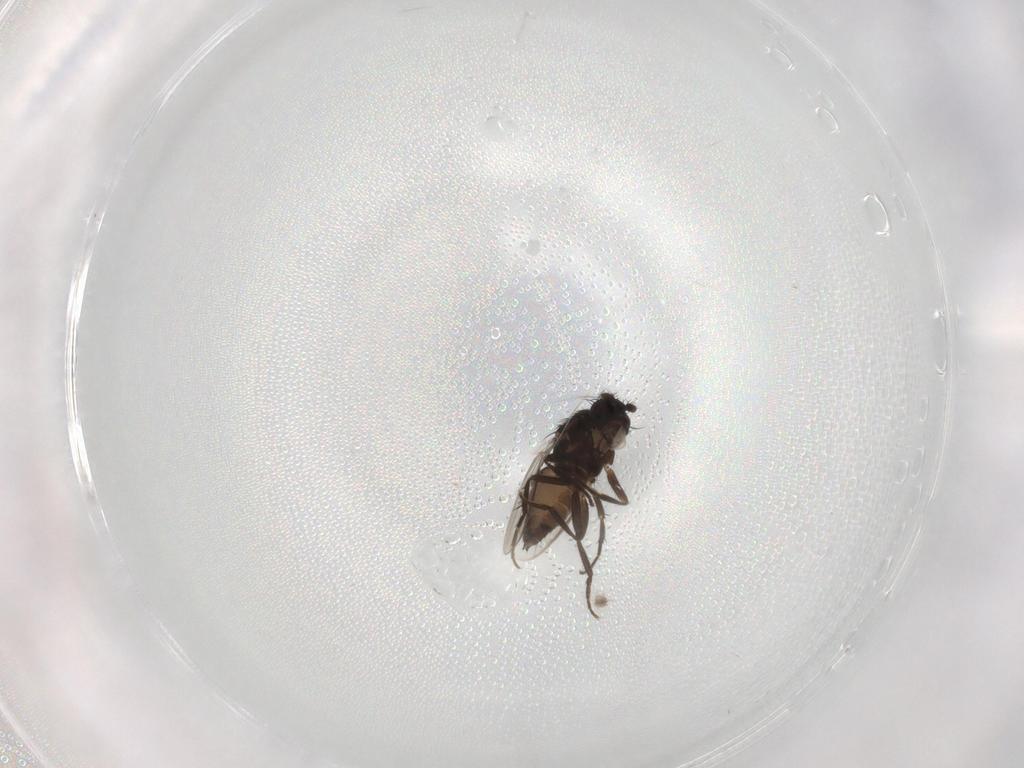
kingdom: Animalia
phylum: Arthropoda
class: Insecta
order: Diptera
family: Sphaeroceridae
